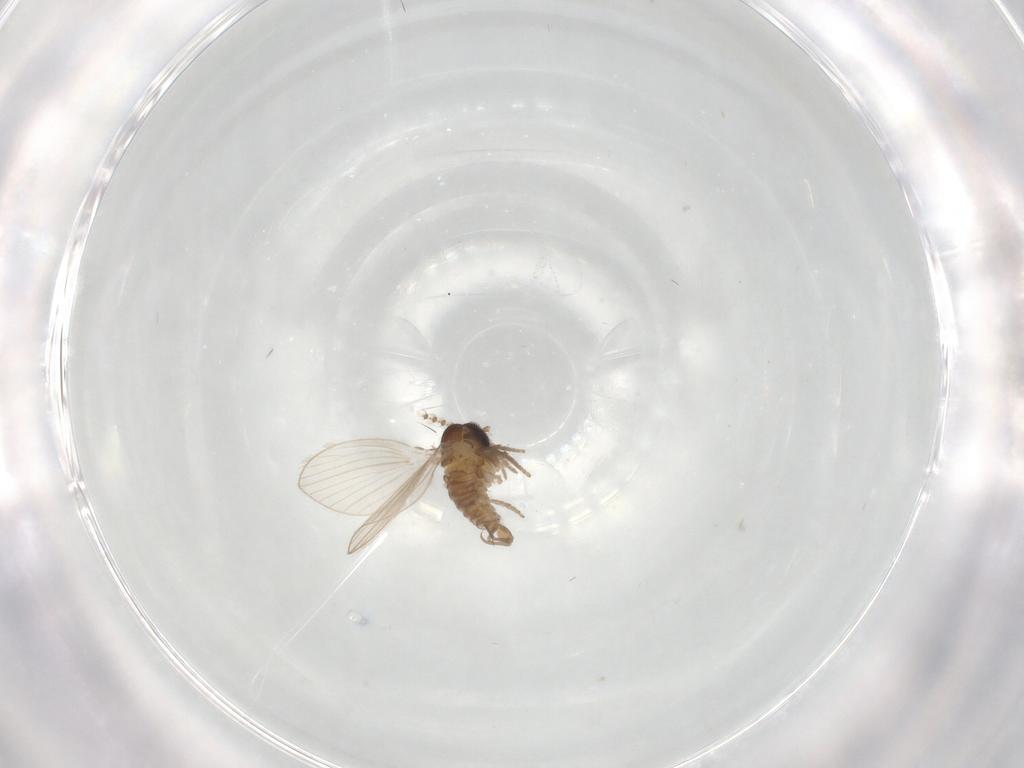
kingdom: Animalia
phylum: Arthropoda
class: Insecta
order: Diptera
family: Psychodidae
